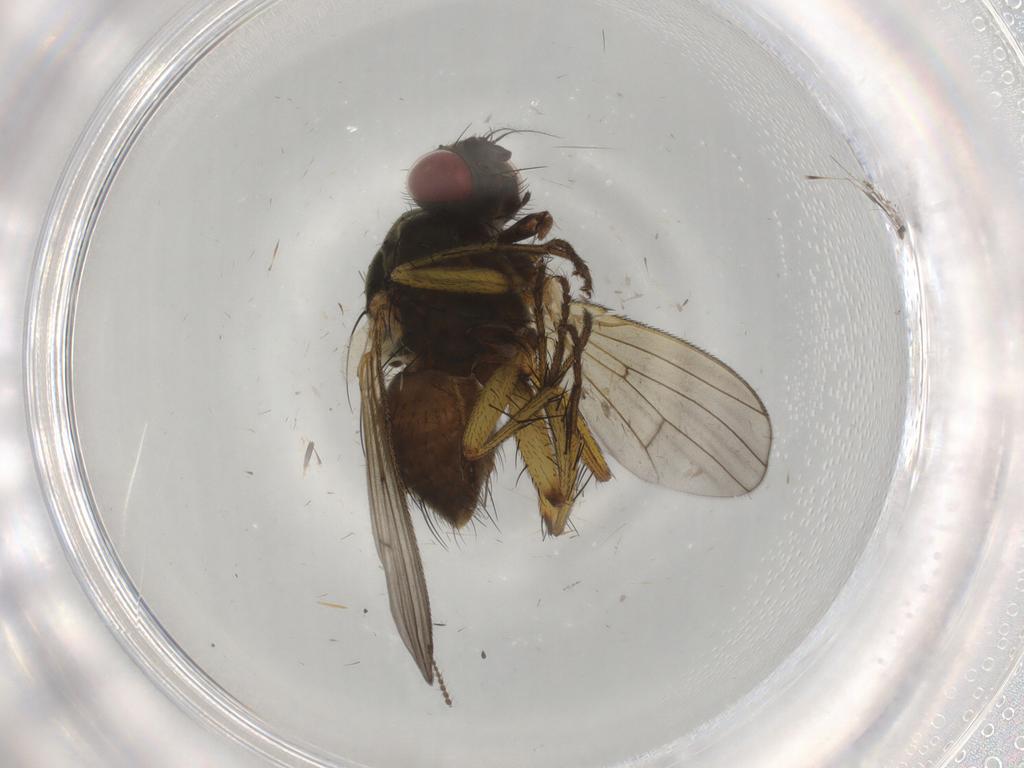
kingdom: Animalia
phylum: Arthropoda
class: Insecta
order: Diptera
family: Muscidae
